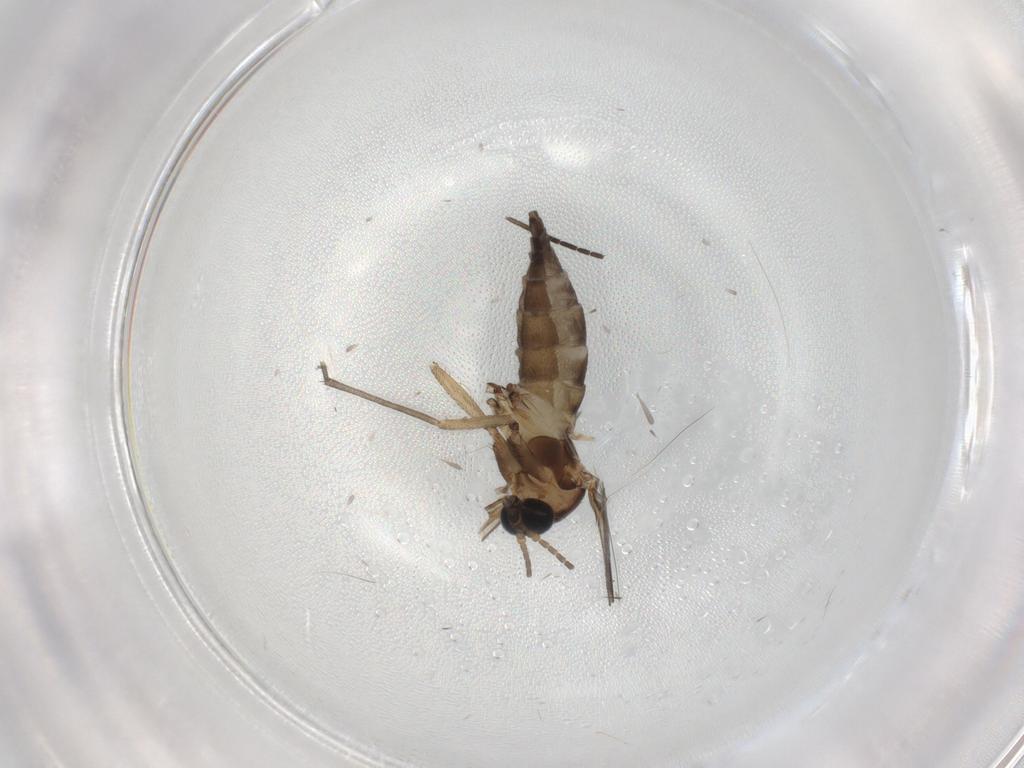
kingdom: Animalia
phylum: Arthropoda
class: Insecta
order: Diptera
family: Sciaridae
